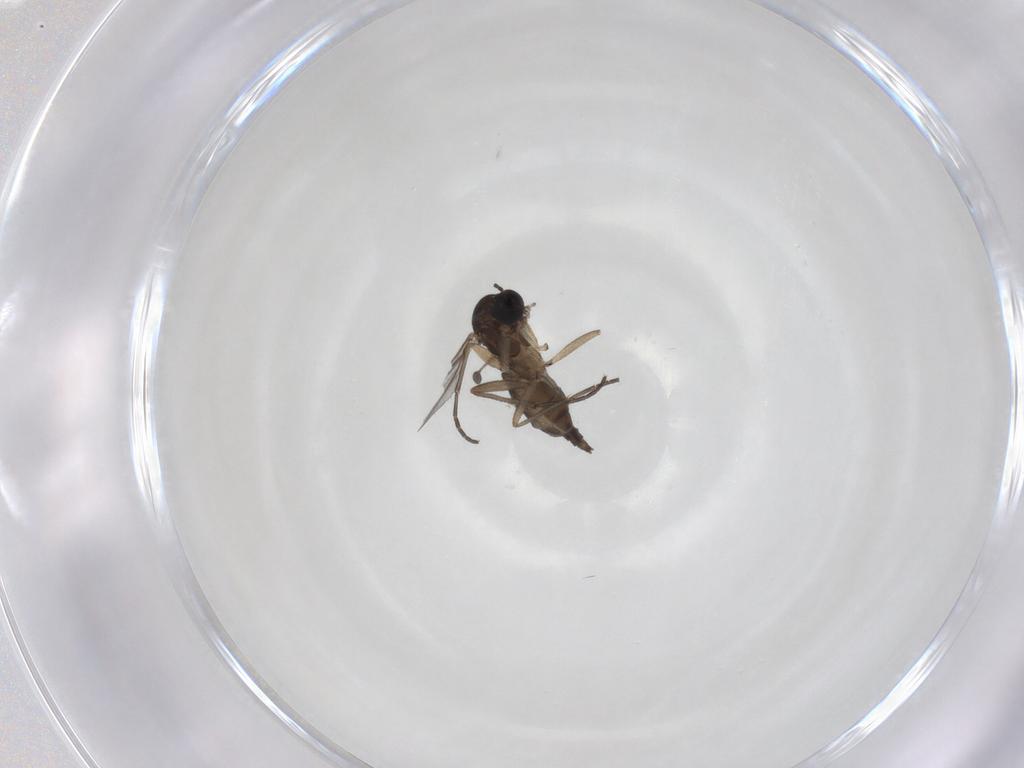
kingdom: Animalia
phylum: Arthropoda
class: Insecta
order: Diptera
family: Sciaridae
